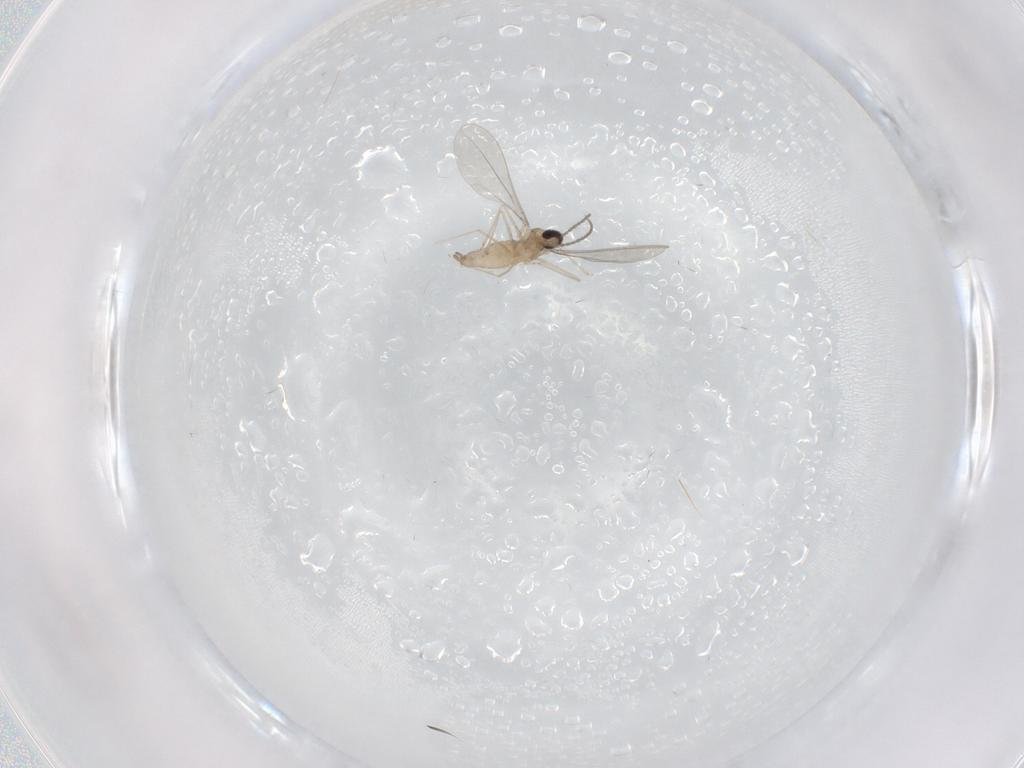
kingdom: Animalia
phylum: Arthropoda
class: Insecta
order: Diptera
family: Cecidomyiidae
